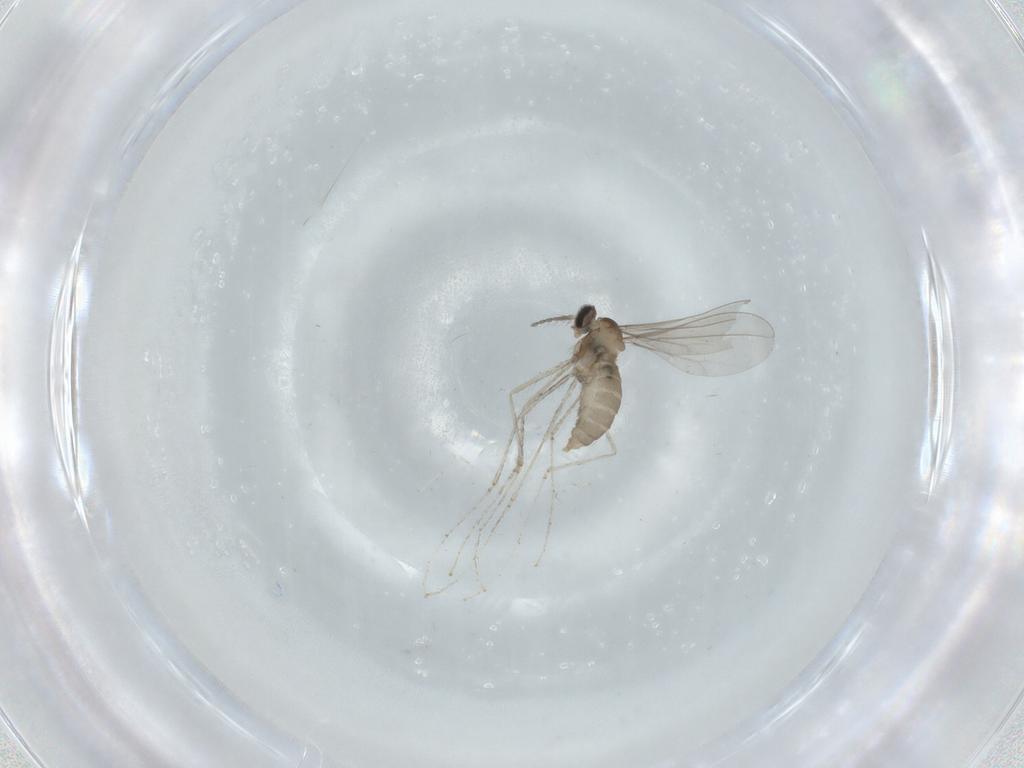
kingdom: Animalia
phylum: Arthropoda
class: Insecta
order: Diptera
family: Cecidomyiidae
